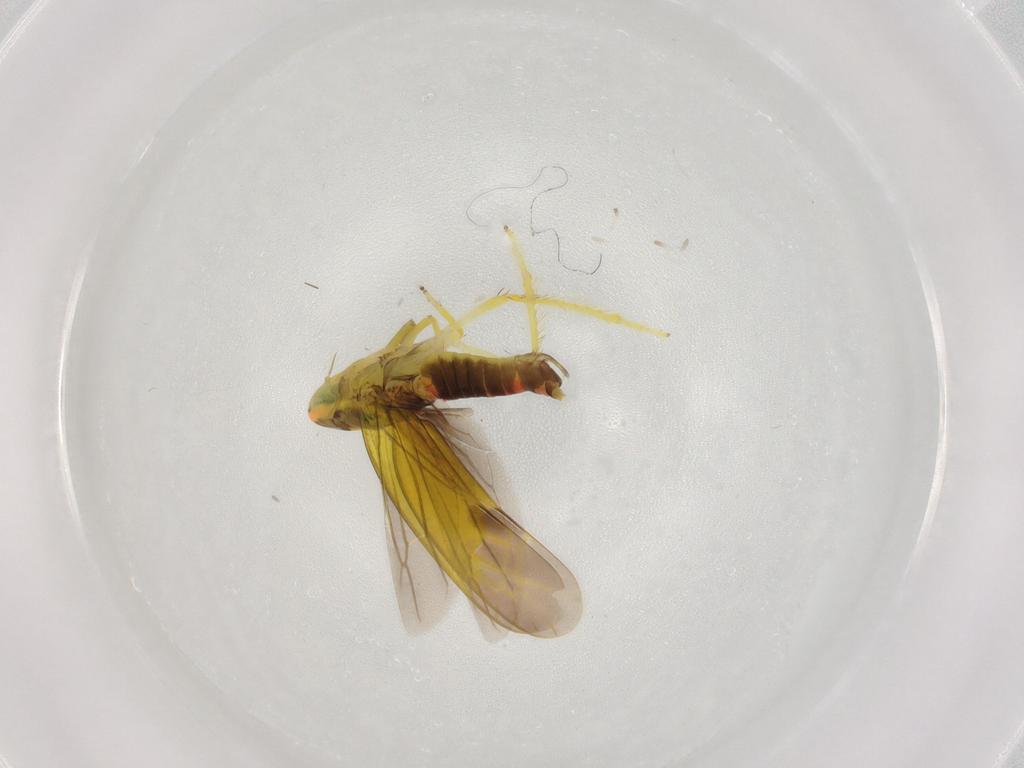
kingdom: Animalia
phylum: Arthropoda
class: Insecta
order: Hemiptera
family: Cicadellidae
